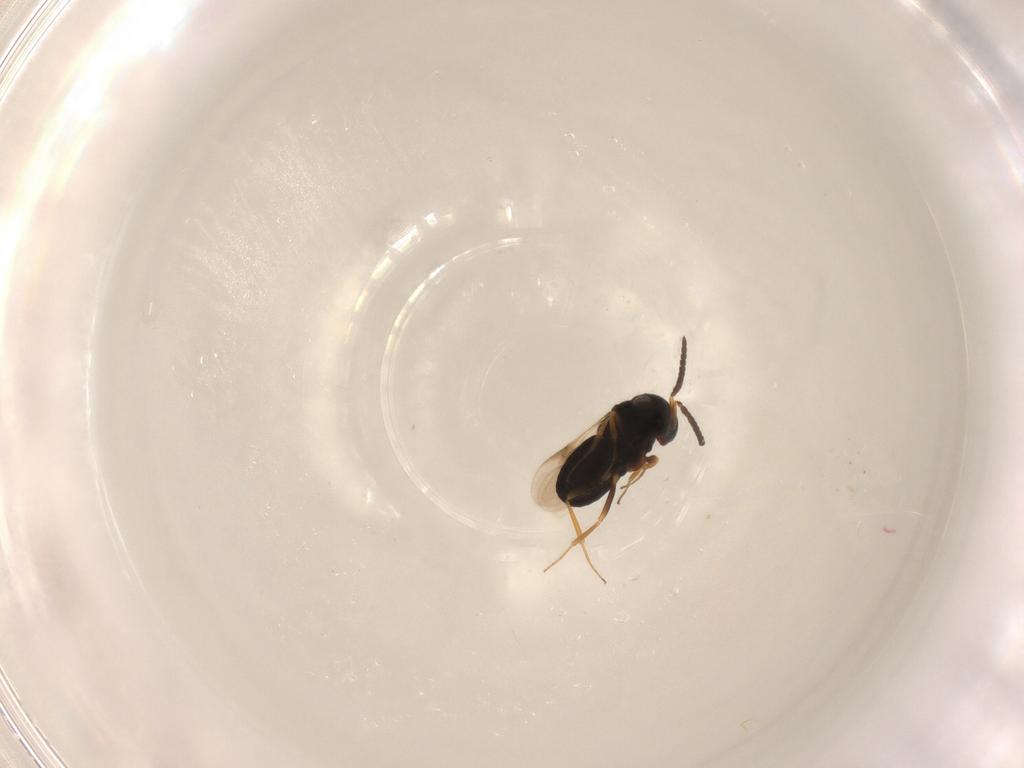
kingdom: Animalia
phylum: Arthropoda
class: Insecta
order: Hymenoptera
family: Scelionidae
